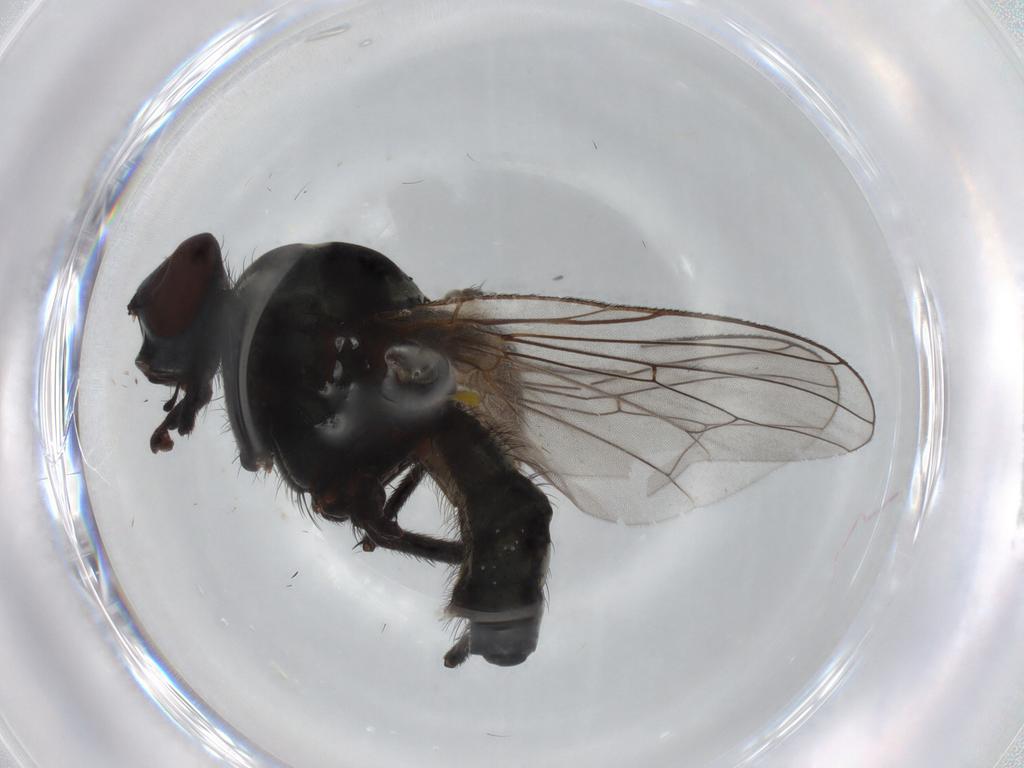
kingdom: Animalia
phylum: Arthropoda
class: Insecta
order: Diptera
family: Anthomyiidae
